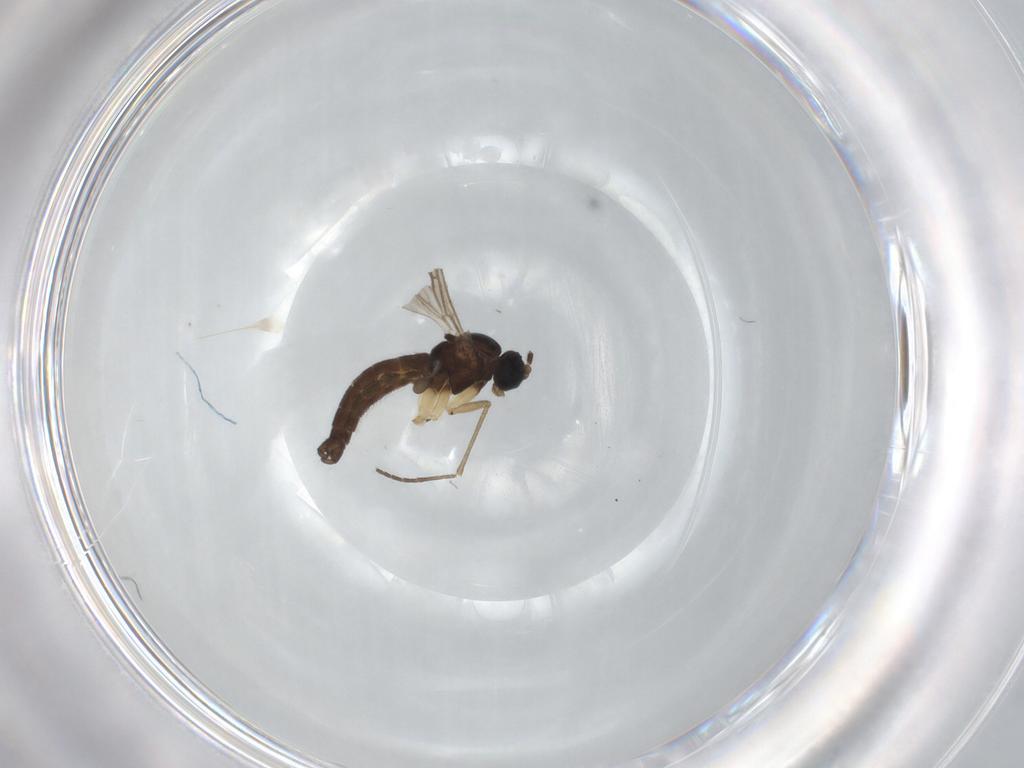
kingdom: Animalia
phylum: Arthropoda
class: Insecta
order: Diptera
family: Sciaridae
